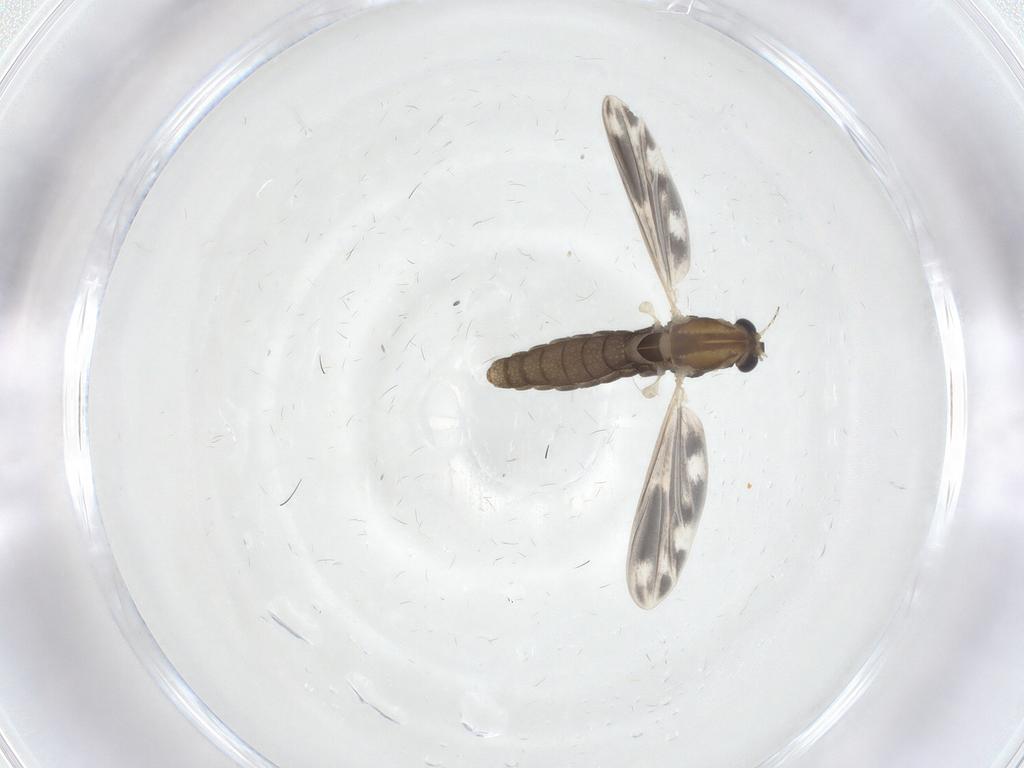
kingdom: Animalia
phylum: Arthropoda
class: Insecta
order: Diptera
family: Chironomidae
